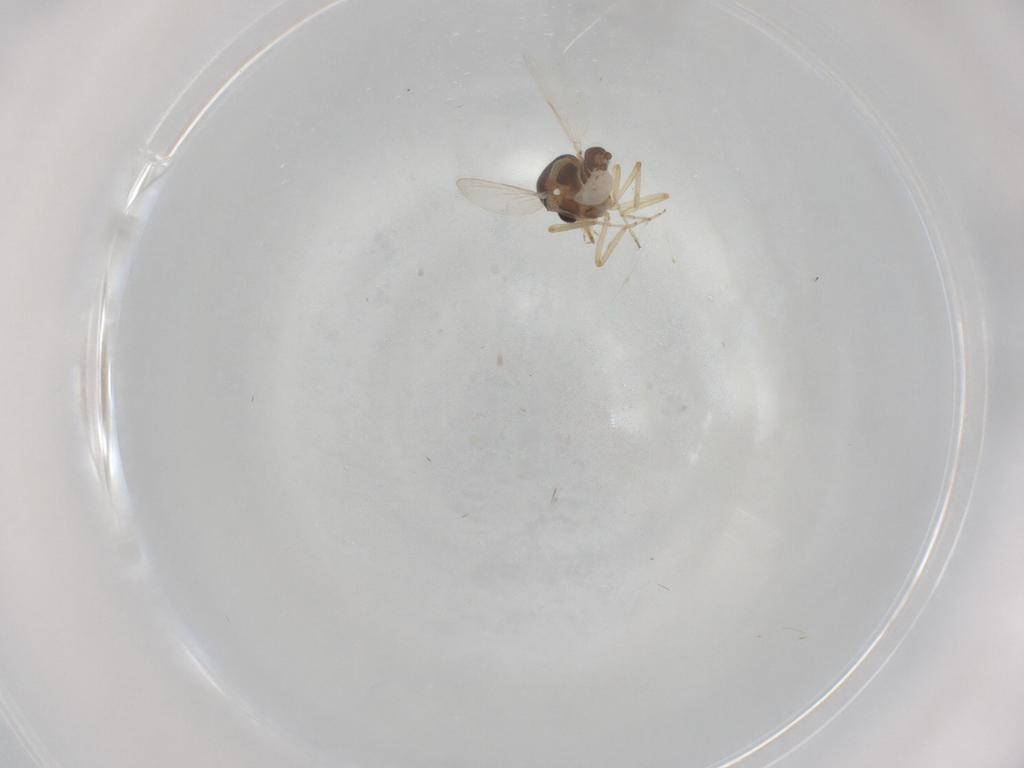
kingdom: Animalia
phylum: Arthropoda
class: Insecta
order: Diptera
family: Ceratopogonidae
